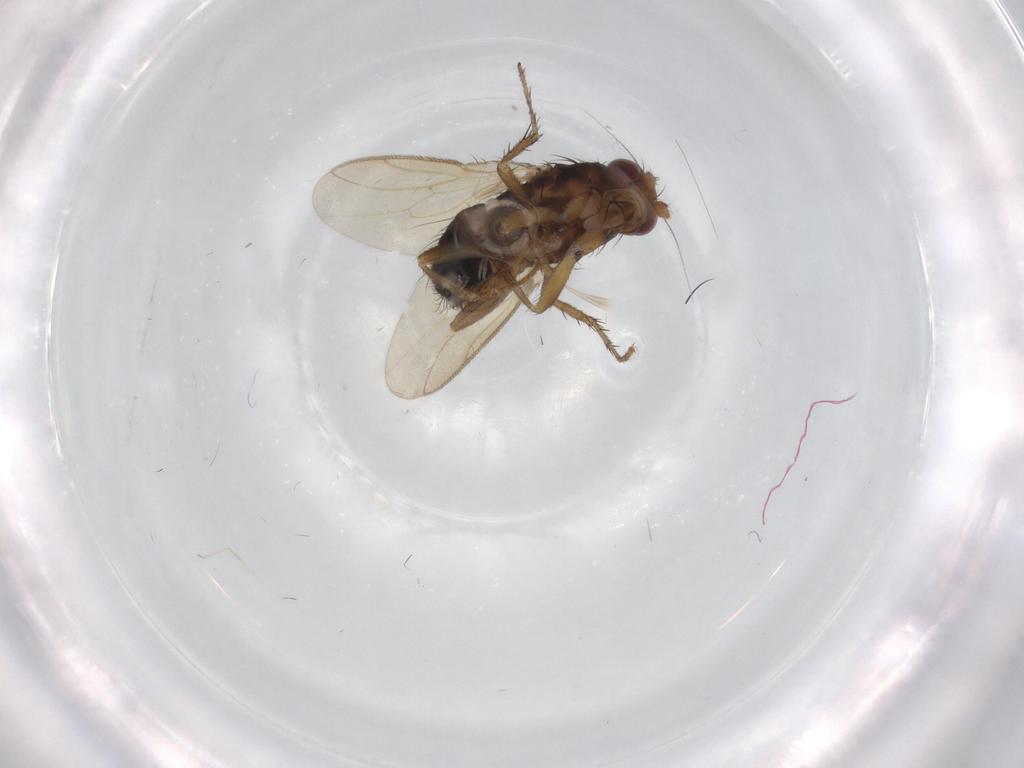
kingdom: Animalia
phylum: Arthropoda
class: Insecta
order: Diptera
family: Sphaeroceridae
